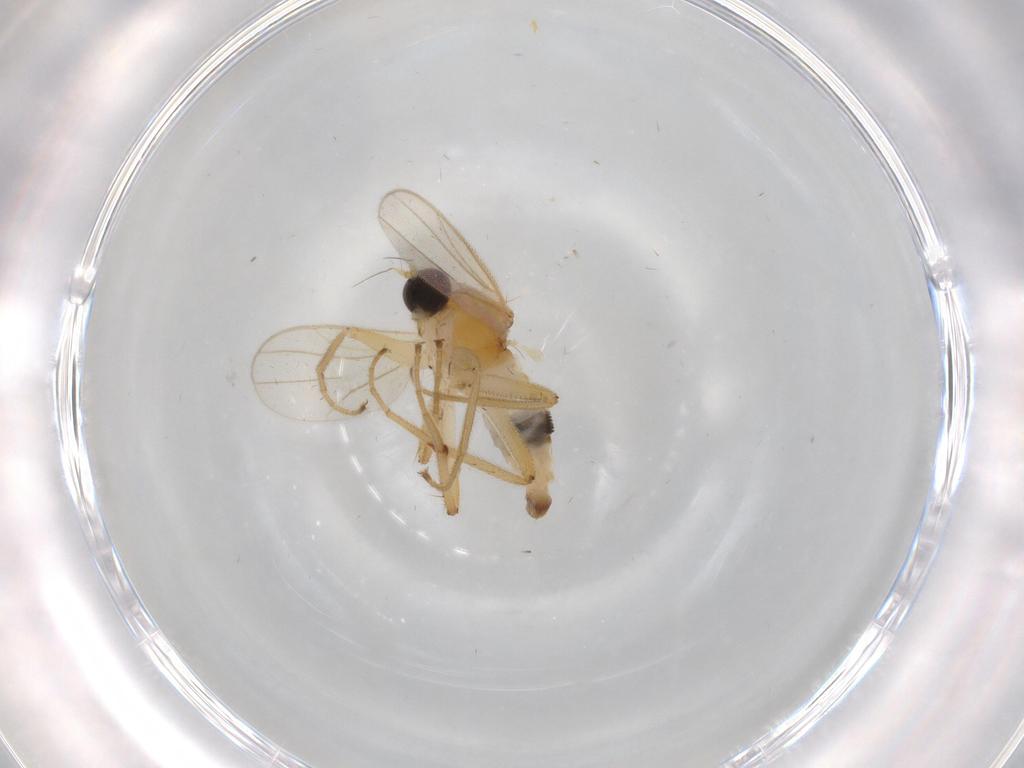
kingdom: Animalia
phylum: Arthropoda
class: Insecta
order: Diptera
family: Hybotidae
